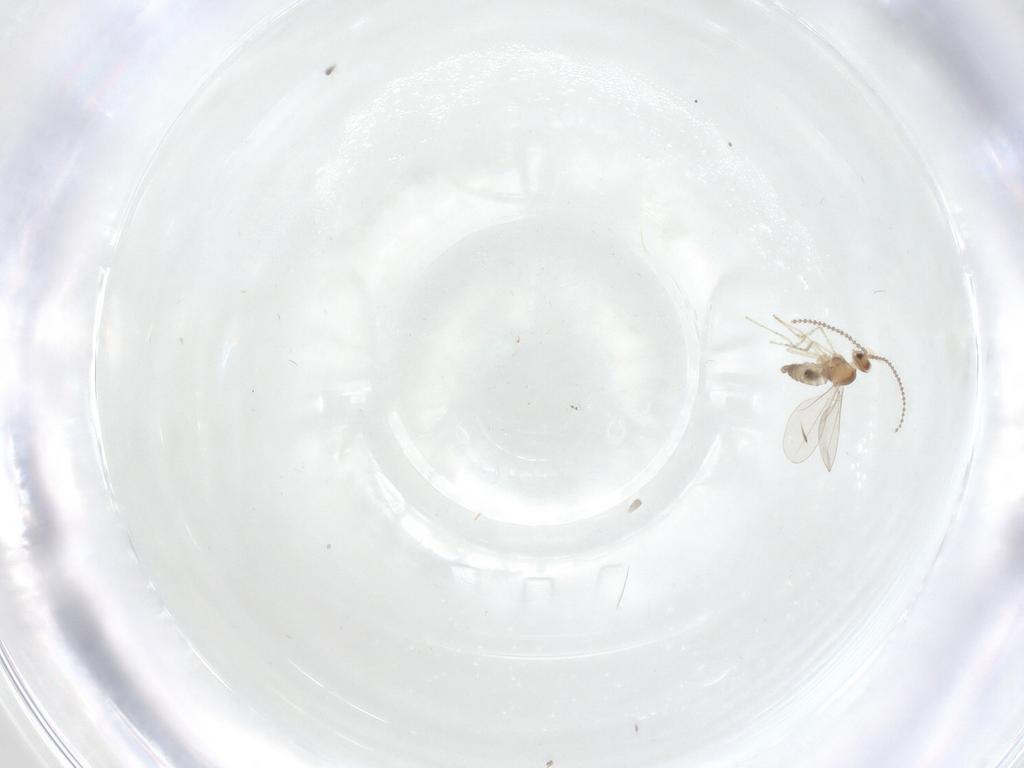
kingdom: Animalia
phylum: Arthropoda
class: Insecta
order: Diptera
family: Cecidomyiidae
